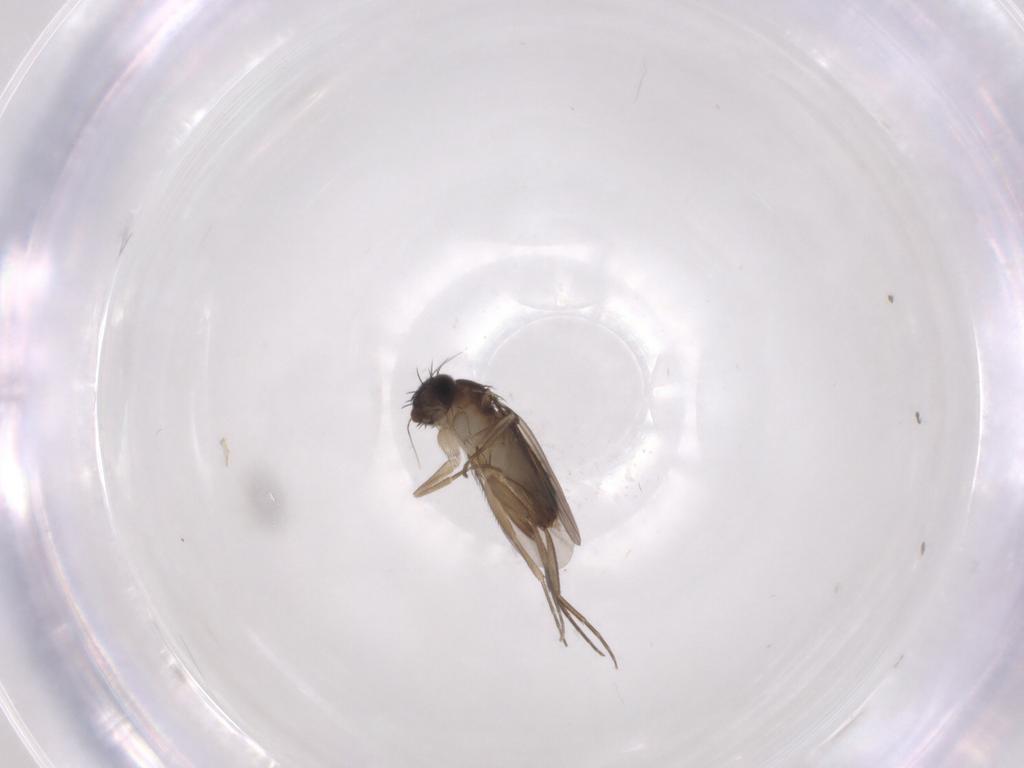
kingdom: Animalia
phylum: Arthropoda
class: Insecta
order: Diptera
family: Phoridae
